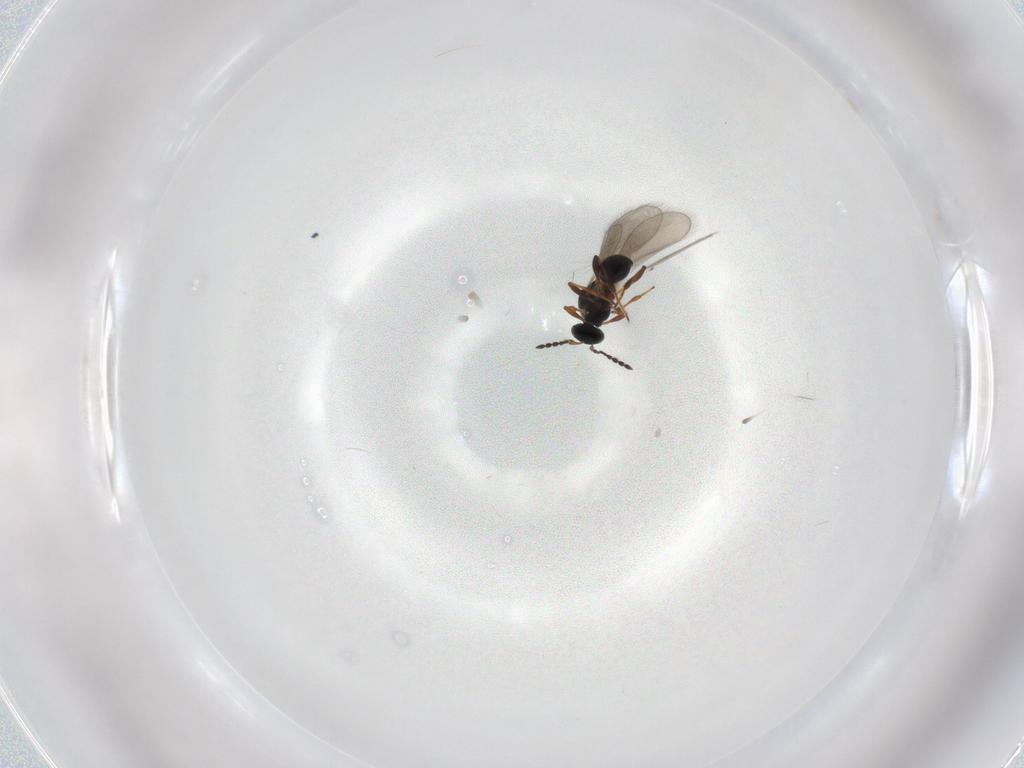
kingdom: Animalia
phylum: Arthropoda
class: Insecta
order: Hymenoptera
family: Platygastridae
